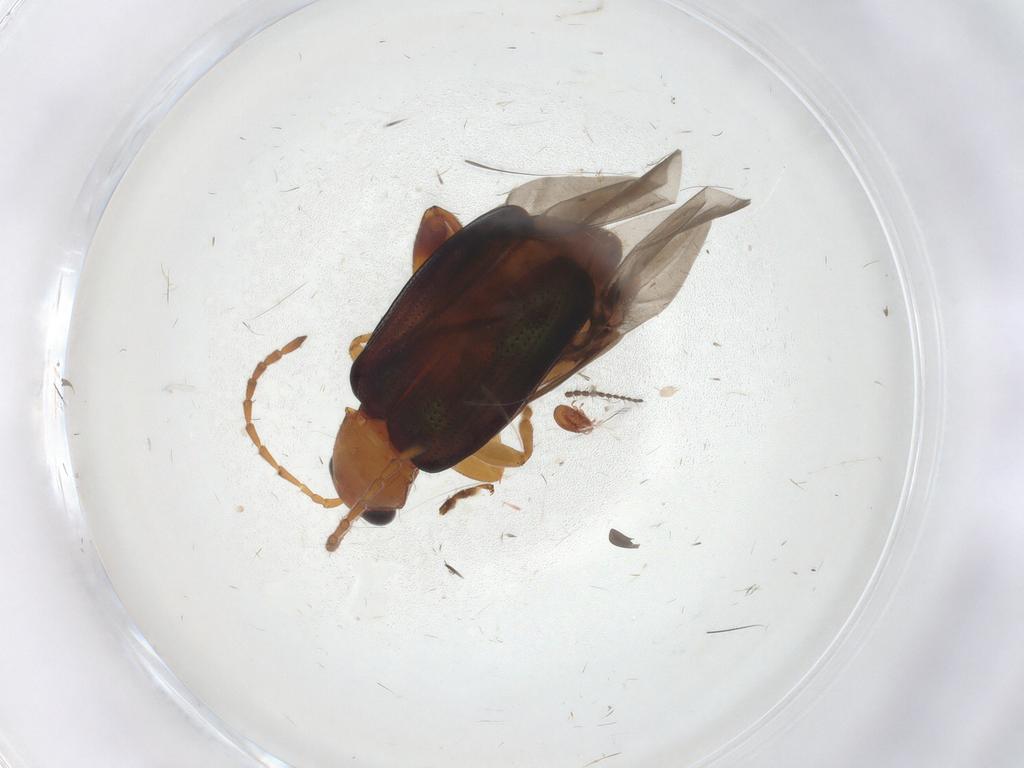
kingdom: Animalia
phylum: Arthropoda
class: Insecta
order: Coleoptera
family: Chrysomelidae
